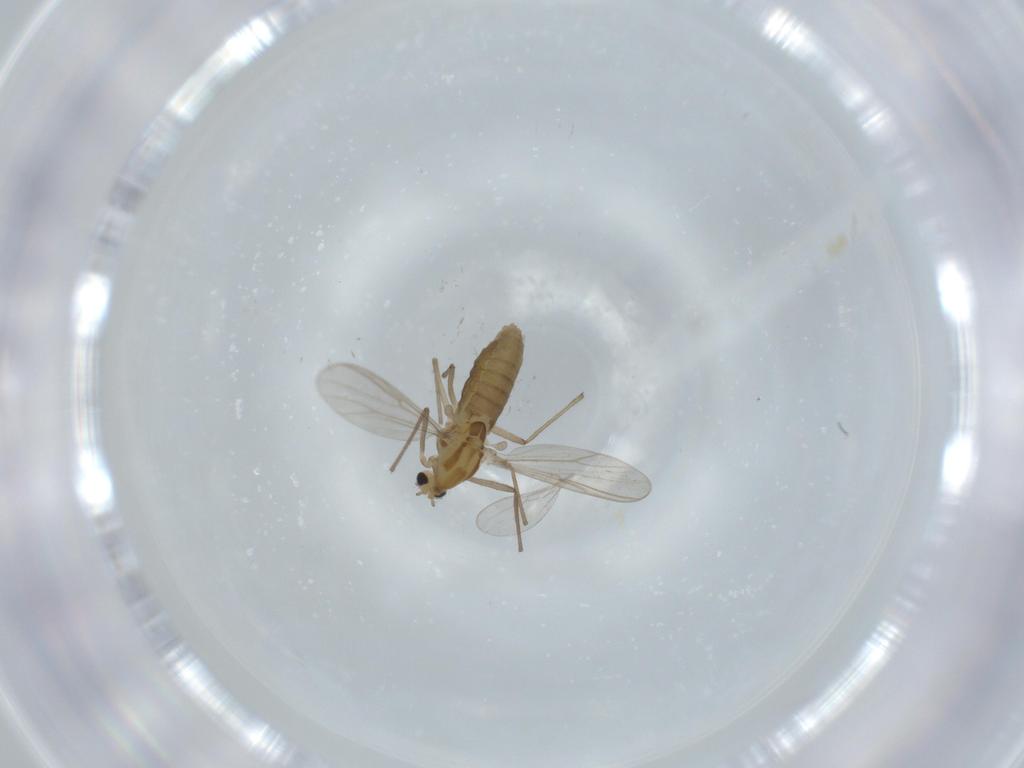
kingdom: Animalia
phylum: Arthropoda
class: Insecta
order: Diptera
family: Chironomidae
